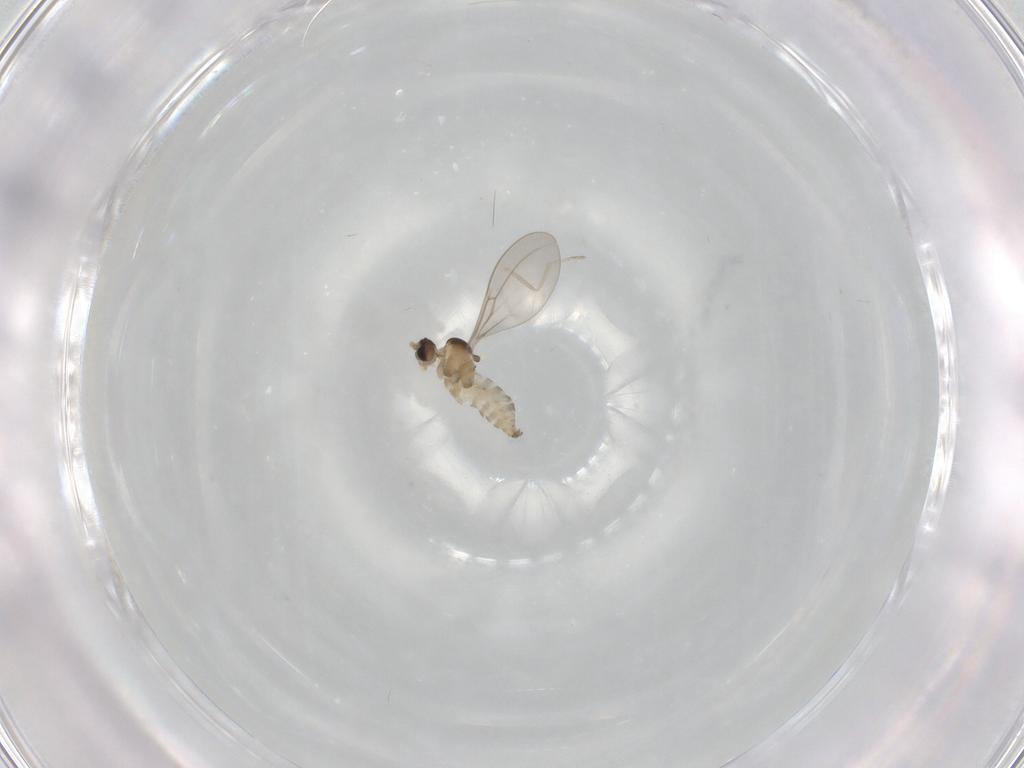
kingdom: Animalia
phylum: Arthropoda
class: Insecta
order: Diptera
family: Cecidomyiidae
